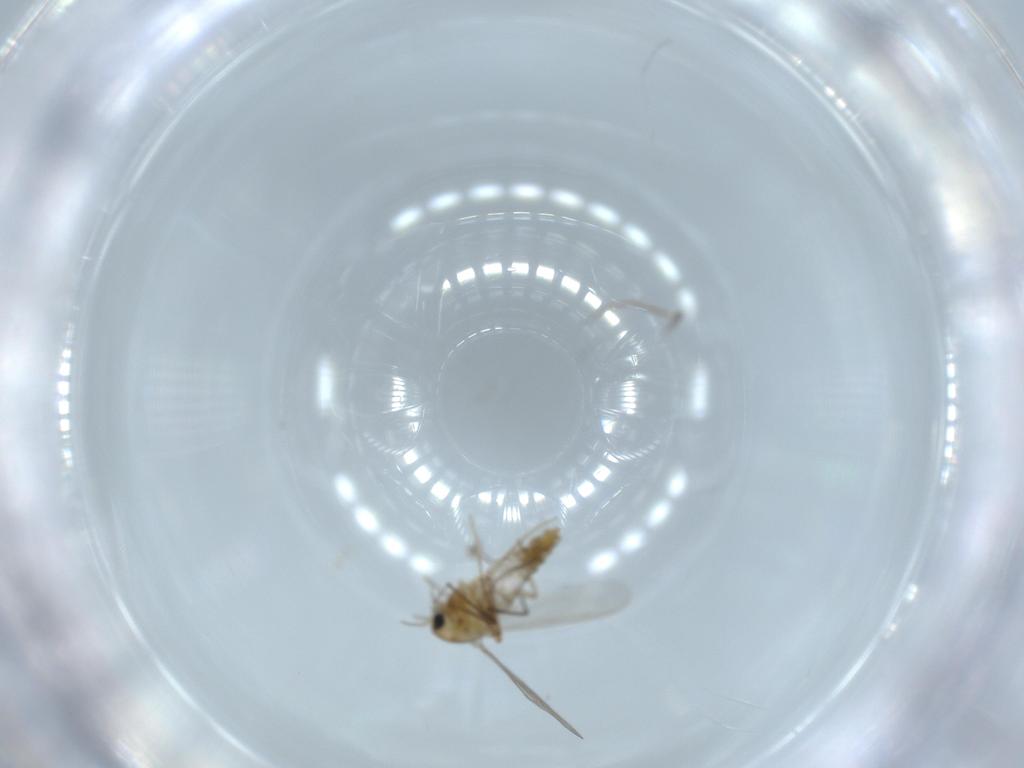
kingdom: Animalia
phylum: Arthropoda
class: Insecta
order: Diptera
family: Chironomidae
